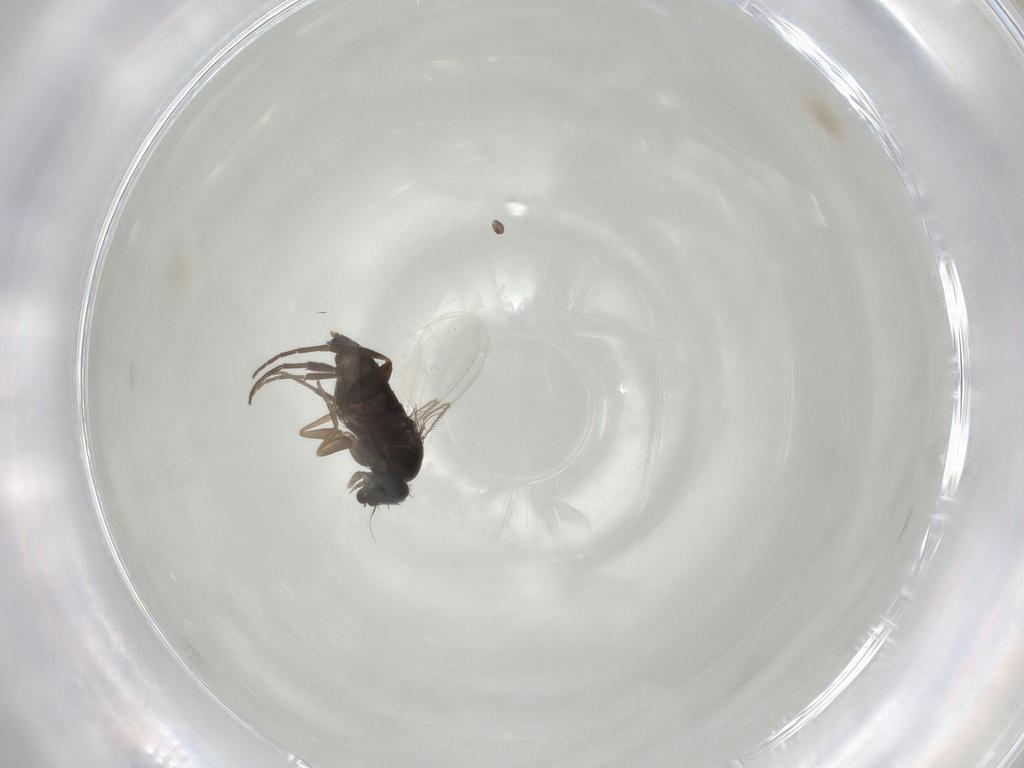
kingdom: Animalia
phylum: Arthropoda
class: Insecta
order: Diptera
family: Phoridae
